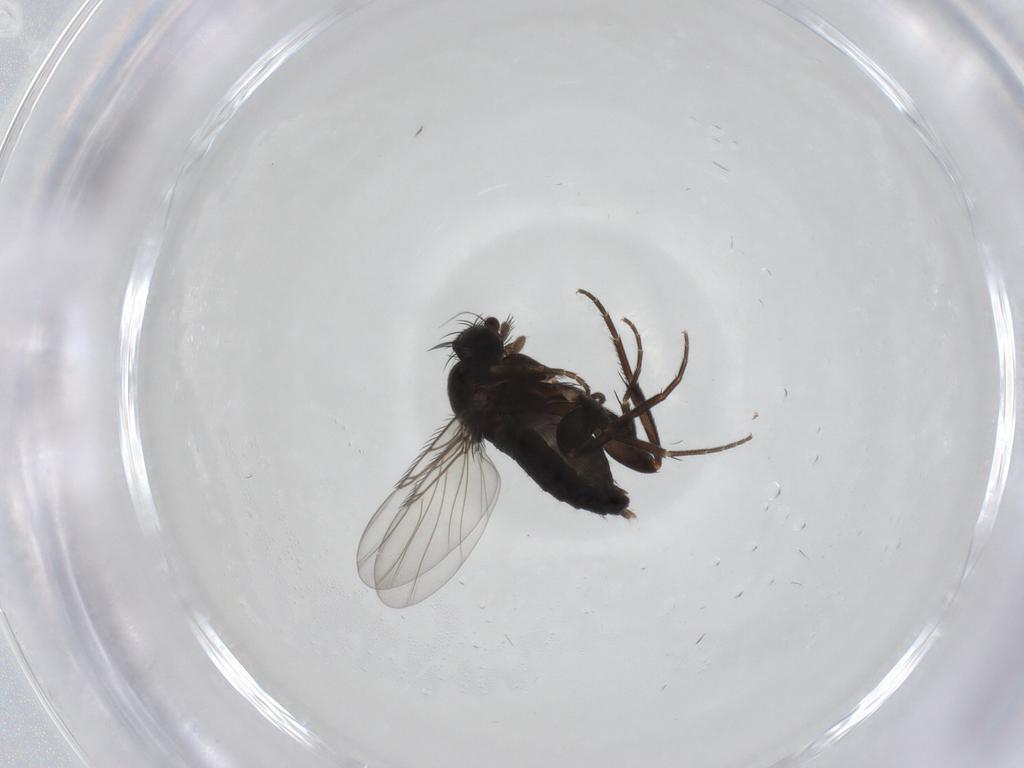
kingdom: Animalia
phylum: Arthropoda
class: Insecta
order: Diptera
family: Phoridae
